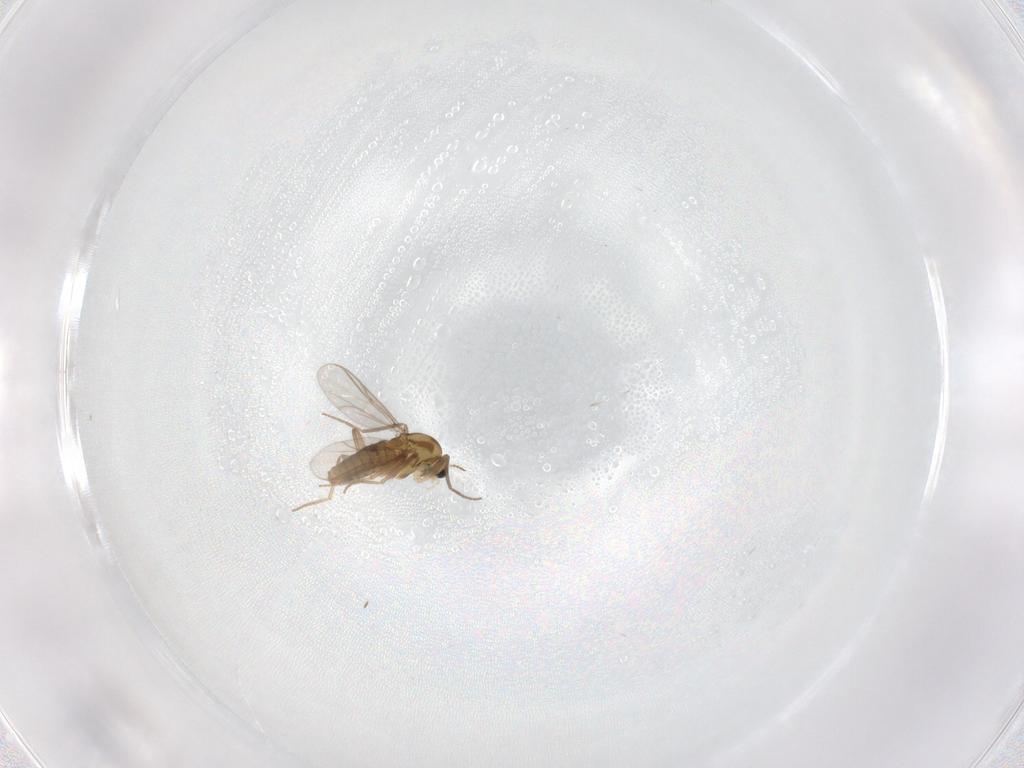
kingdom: Animalia
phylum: Arthropoda
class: Insecta
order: Diptera
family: Chironomidae
